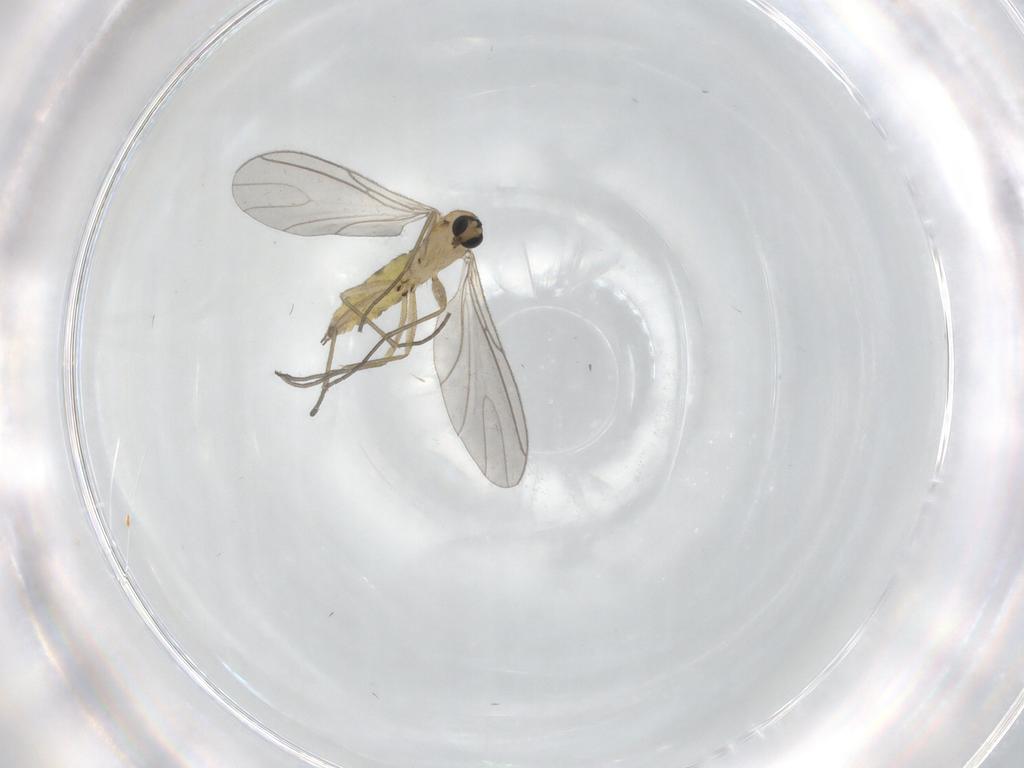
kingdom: Animalia
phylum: Arthropoda
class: Insecta
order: Diptera
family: Sciaridae
